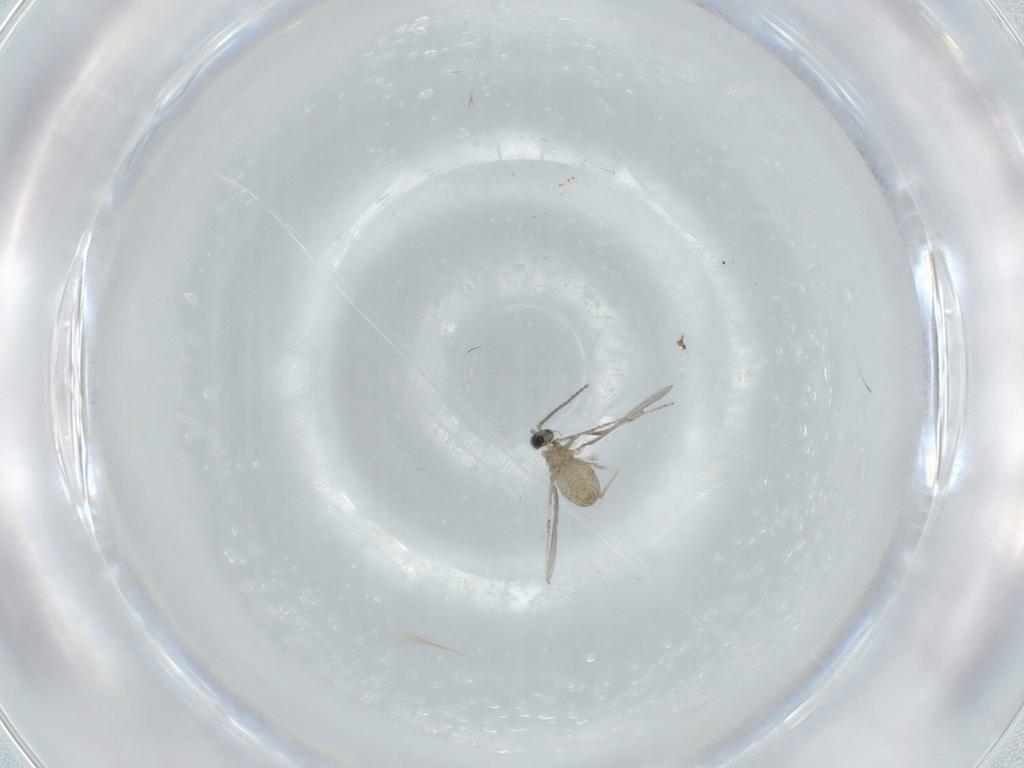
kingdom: Animalia
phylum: Arthropoda
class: Insecta
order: Diptera
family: Cecidomyiidae
